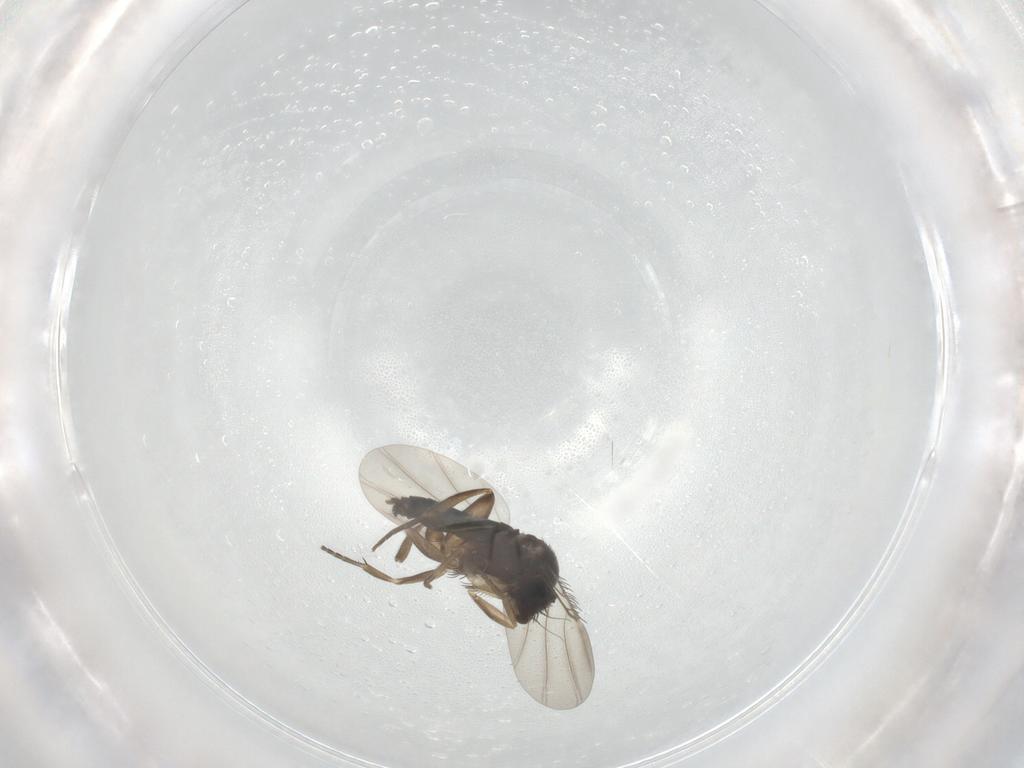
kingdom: Animalia
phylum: Arthropoda
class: Insecta
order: Diptera
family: Phoridae
